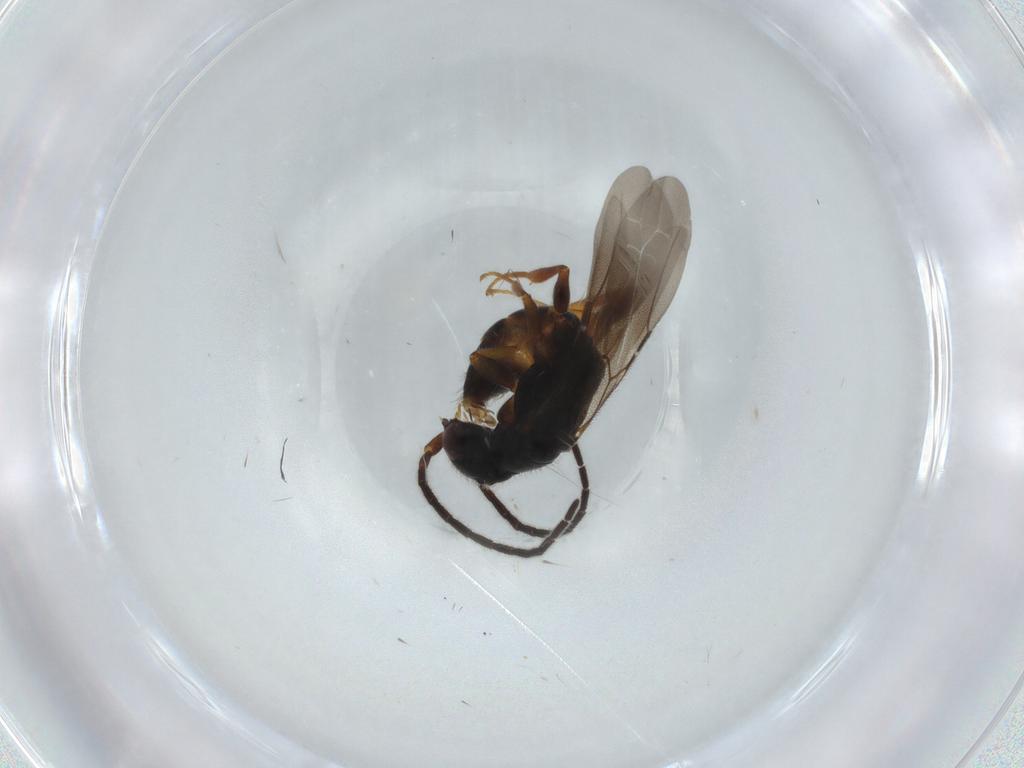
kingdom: Animalia
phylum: Arthropoda
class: Insecta
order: Hymenoptera
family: Bethylidae
